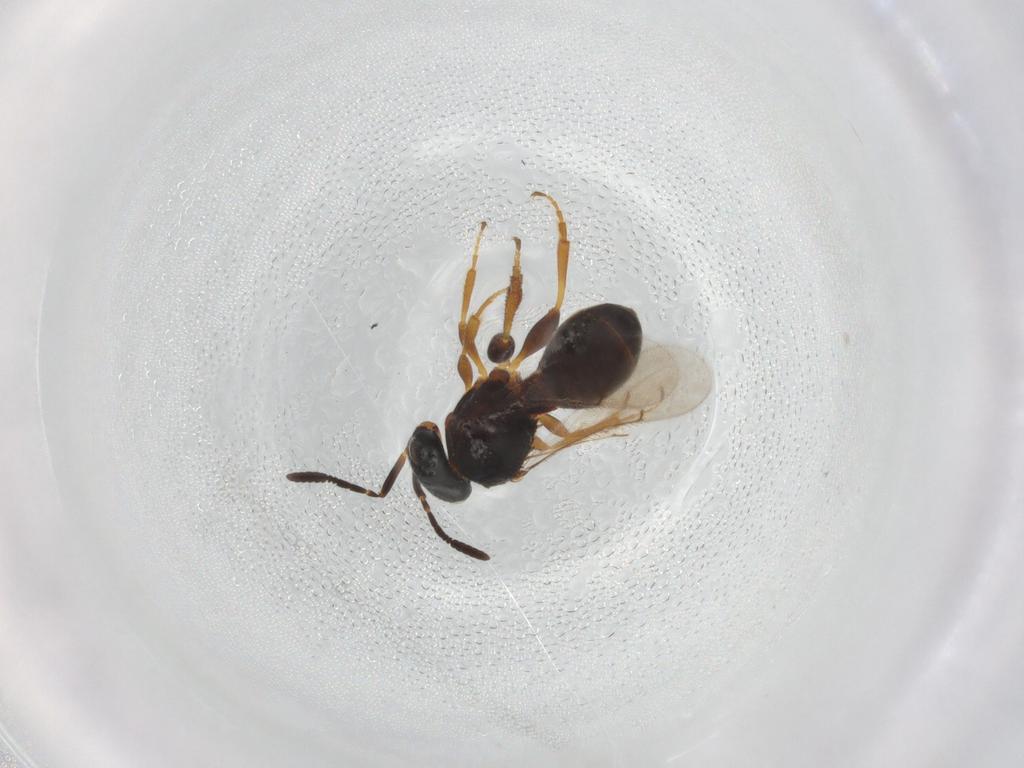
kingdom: Animalia
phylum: Arthropoda
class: Insecta
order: Hymenoptera
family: Scelionidae
